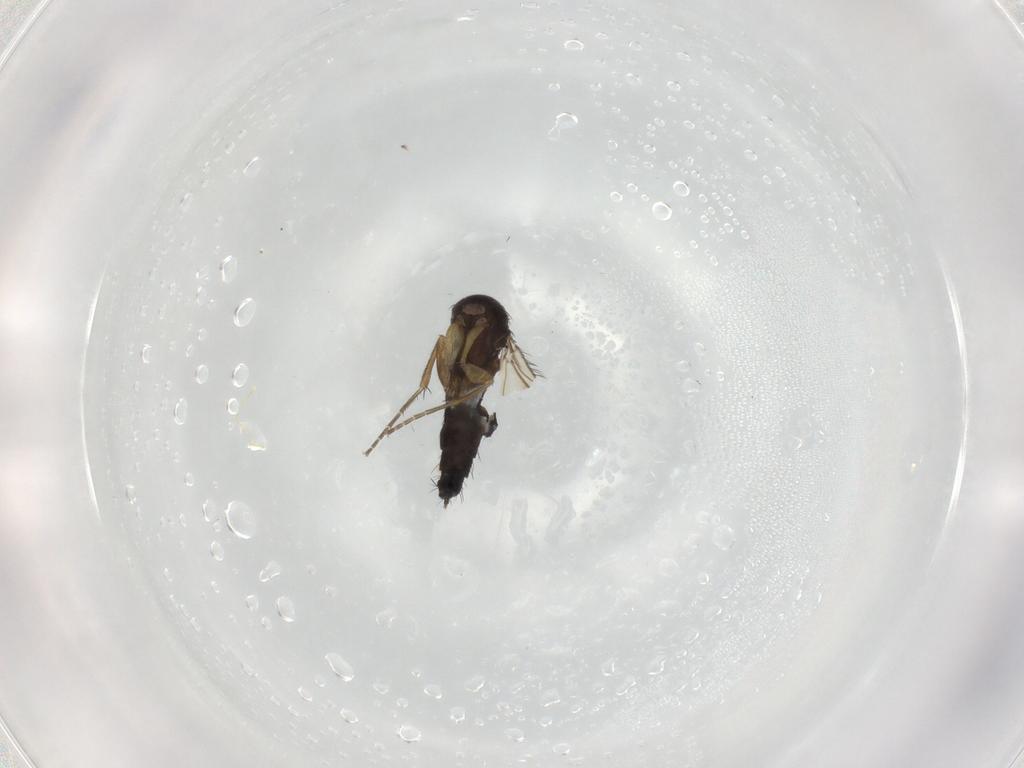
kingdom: Animalia
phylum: Arthropoda
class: Insecta
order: Diptera
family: Phoridae
